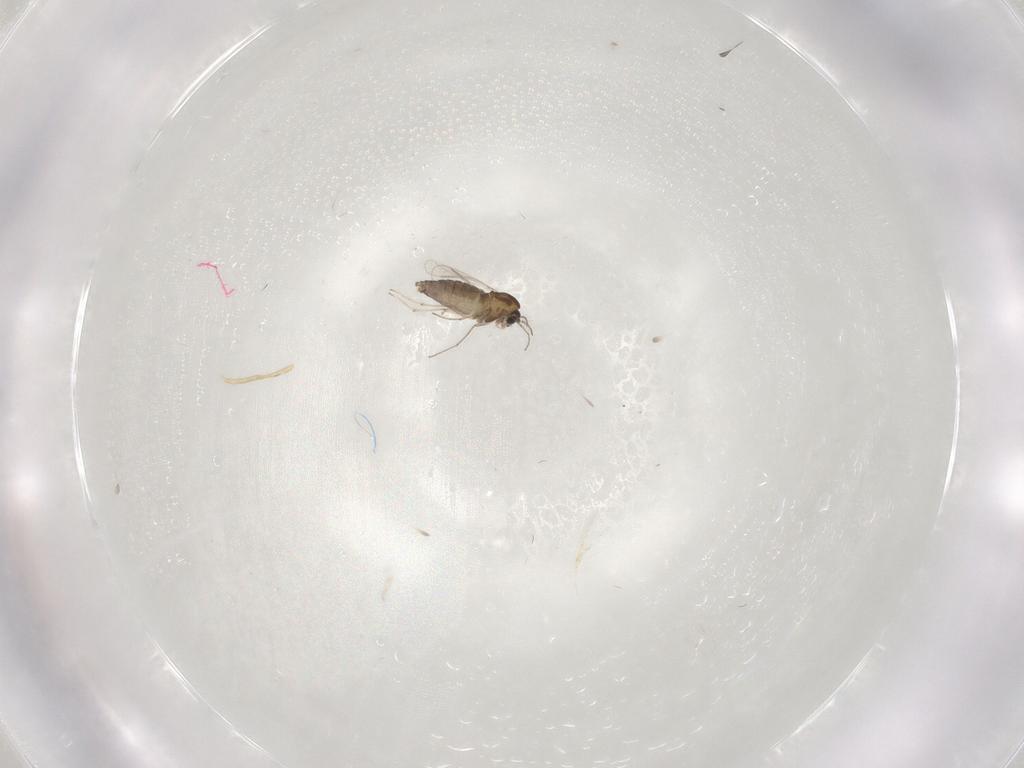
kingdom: Animalia
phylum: Arthropoda
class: Insecta
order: Diptera
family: Chironomidae
